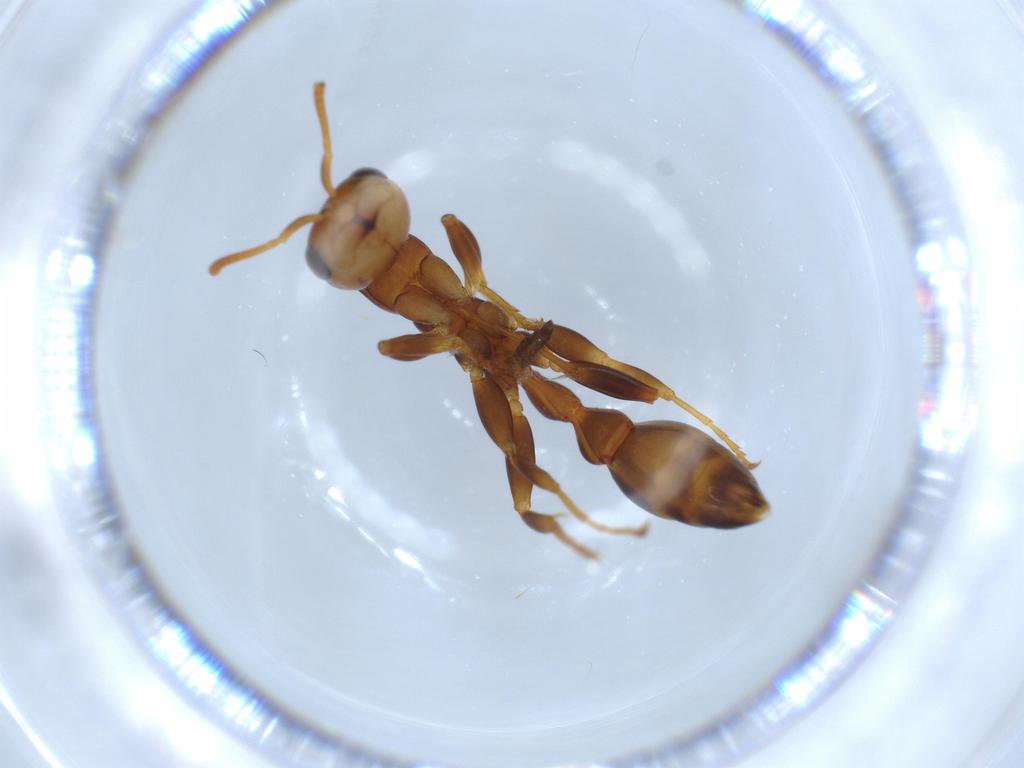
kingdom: Animalia
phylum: Arthropoda
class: Insecta
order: Hymenoptera
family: Formicidae
